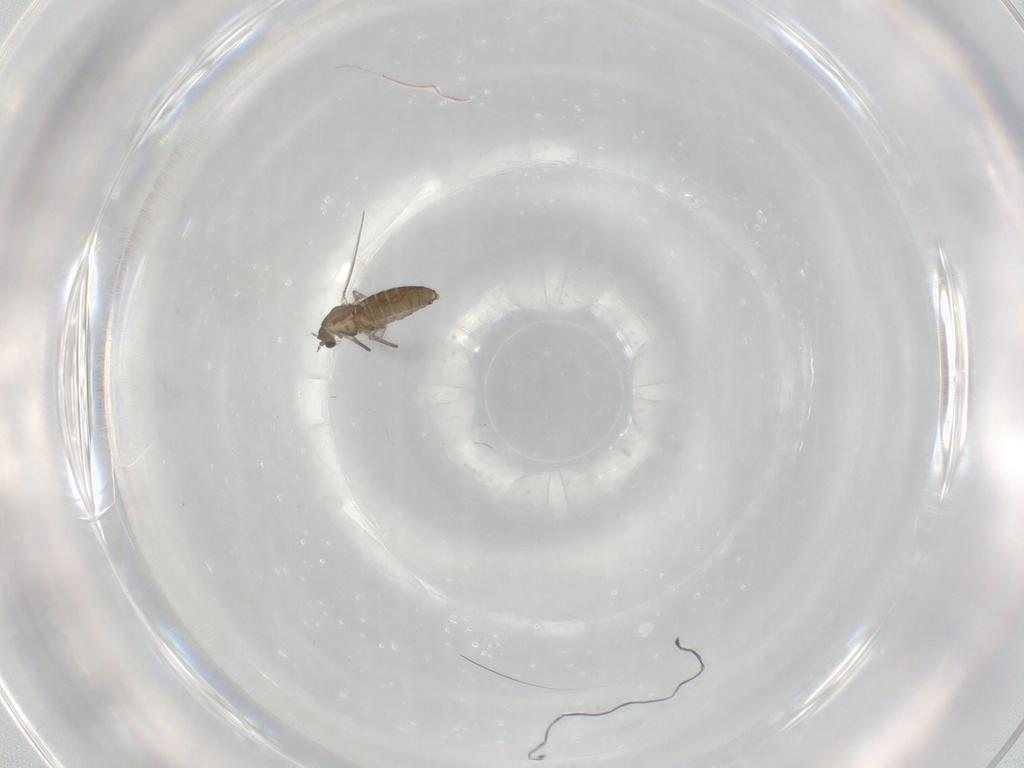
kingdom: Animalia
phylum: Arthropoda
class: Insecta
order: Diptera
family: Chironomidae
